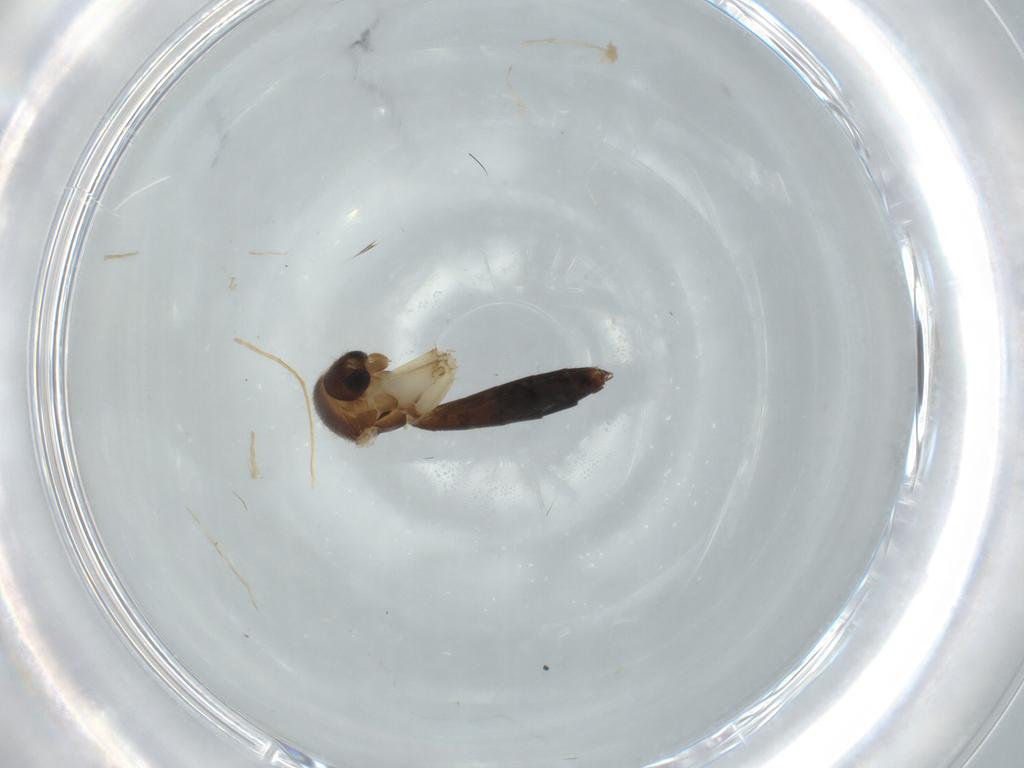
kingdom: Animalia
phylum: Arthropoda
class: Insecta
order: Diptera
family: Mycetophilidae
